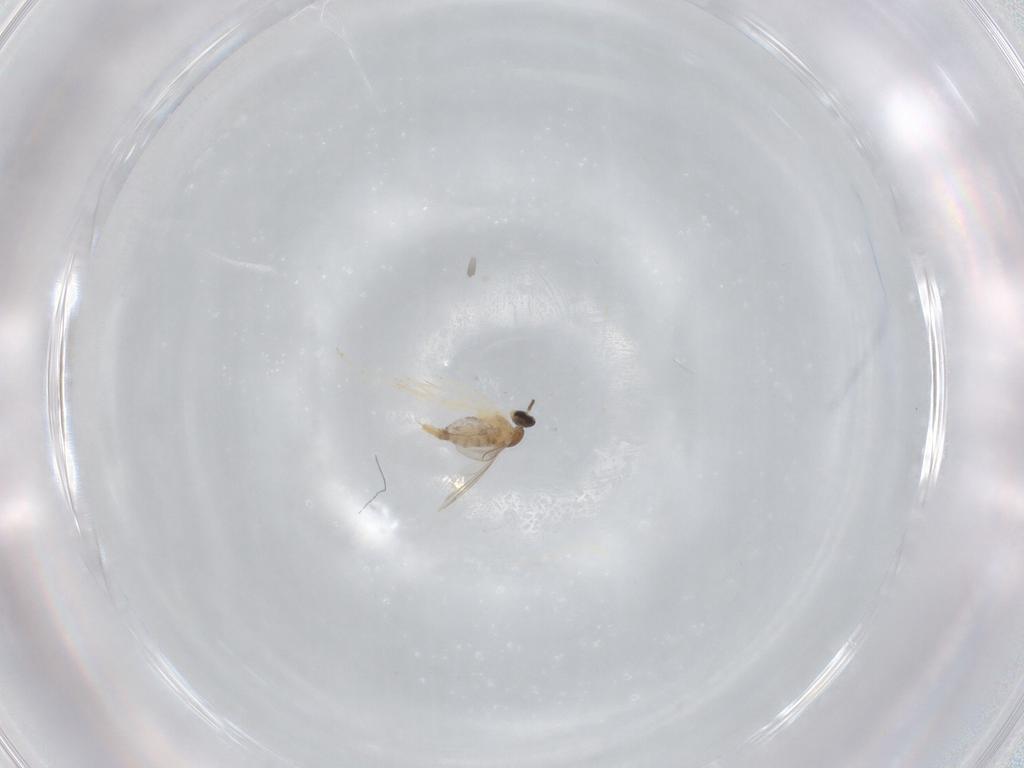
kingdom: Animalia
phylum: Arthropoda
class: Insecta
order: Diptera
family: Cecidomyiidae
